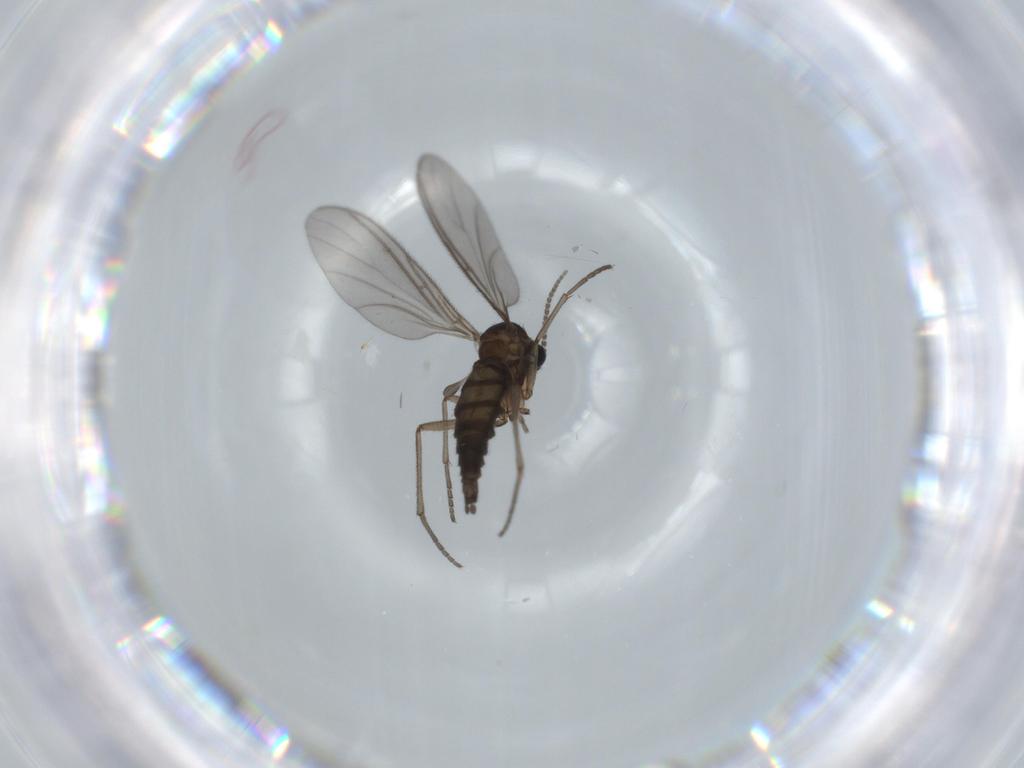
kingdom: Animalia
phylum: Arthropoda
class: Insecta
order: Diptera
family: Sciaridae
